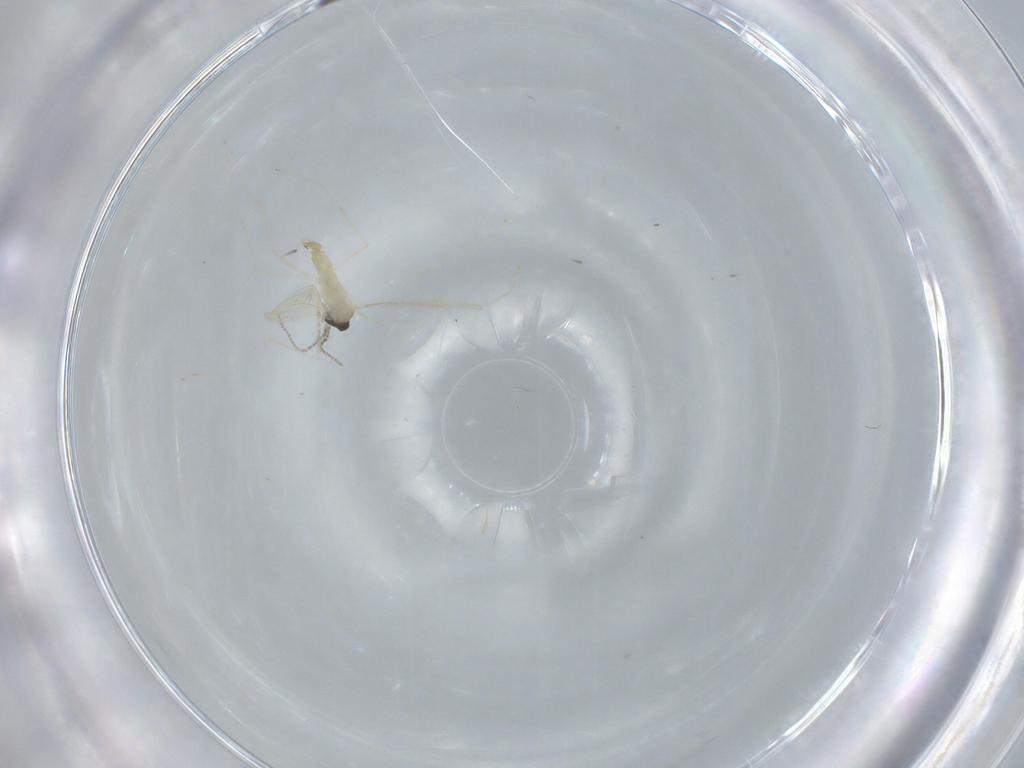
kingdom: Animalia
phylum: Arthropoda
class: Insecta
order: Diptera
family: Cecidomyiidae
